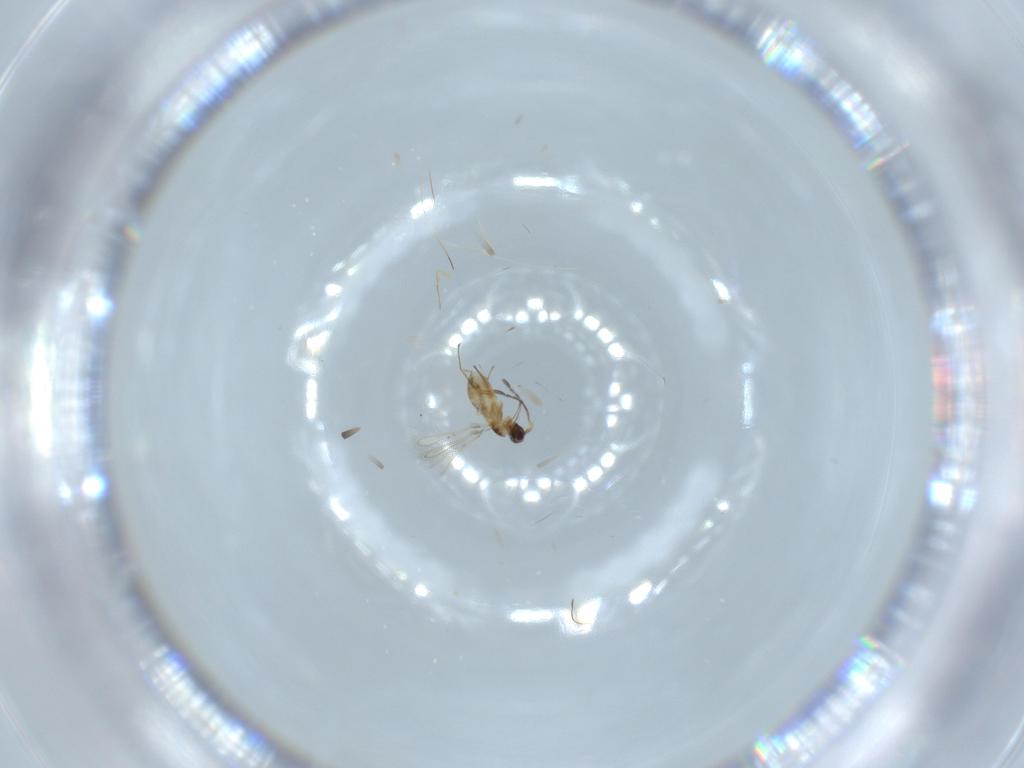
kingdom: Animalia
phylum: Arthropoda
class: Insecta
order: Hymenoptera
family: Mymaridae
